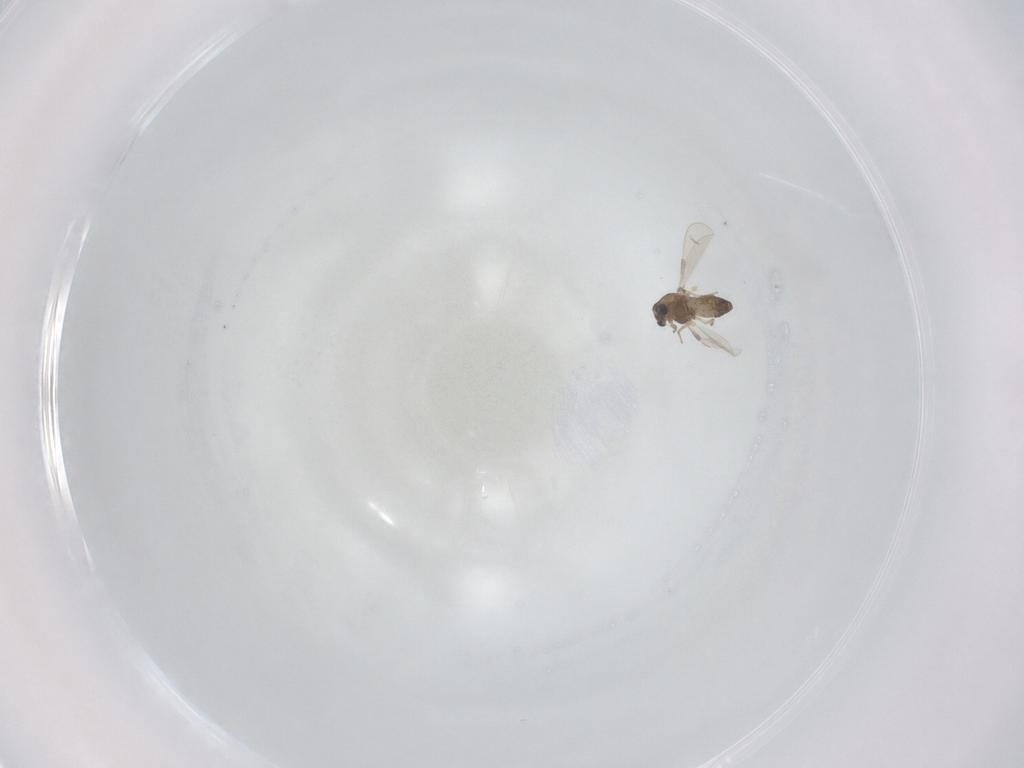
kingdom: Animalia
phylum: Arthropoda
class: Insecta
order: Diptera
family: Chironomidae
